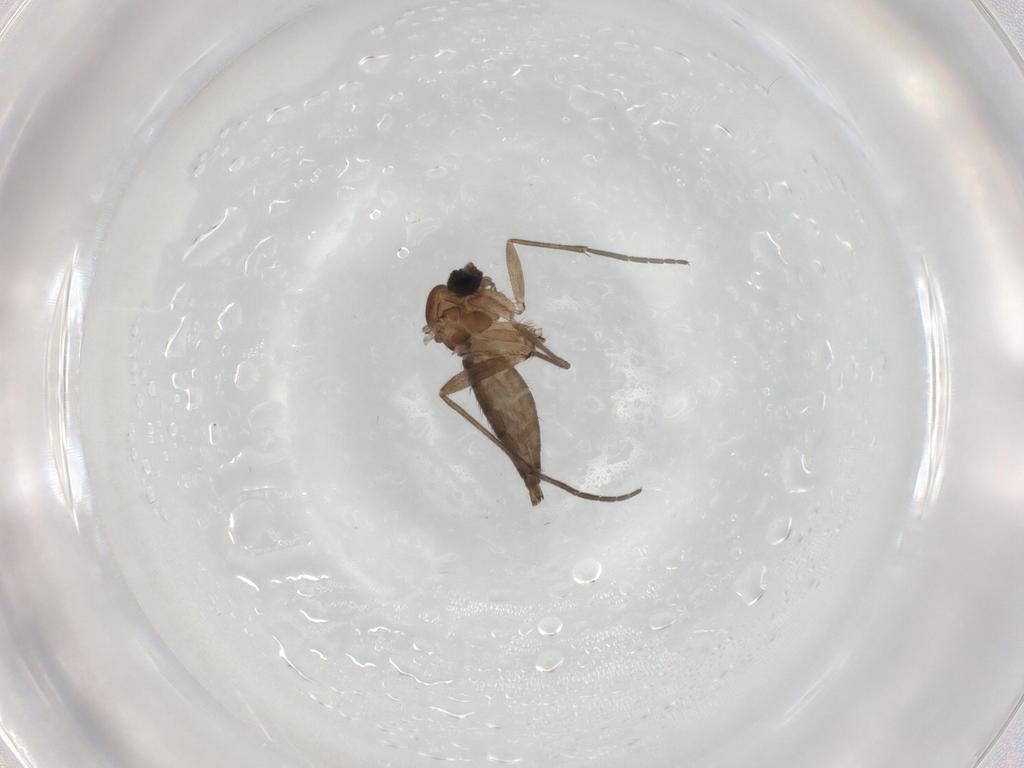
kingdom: Animalia
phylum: Arthropoda
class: Insecta
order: Diptera
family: Sciaridae
